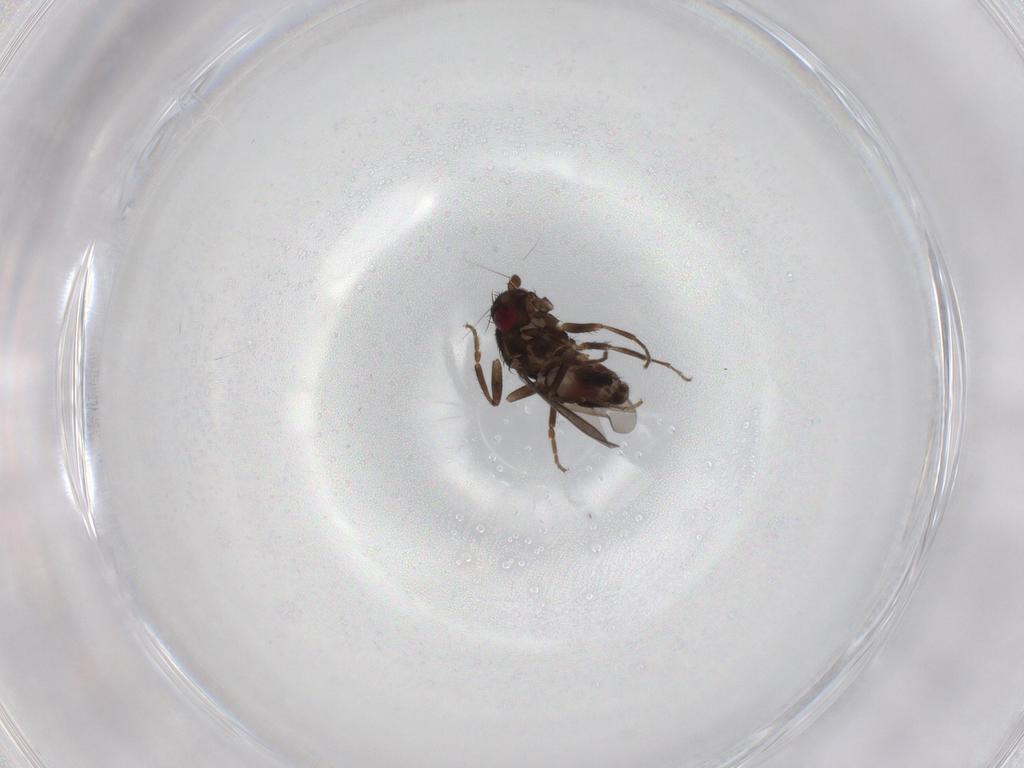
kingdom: Animalia
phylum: Arthropoda
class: Insecta
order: Diptera
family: Sphaeroceridae
